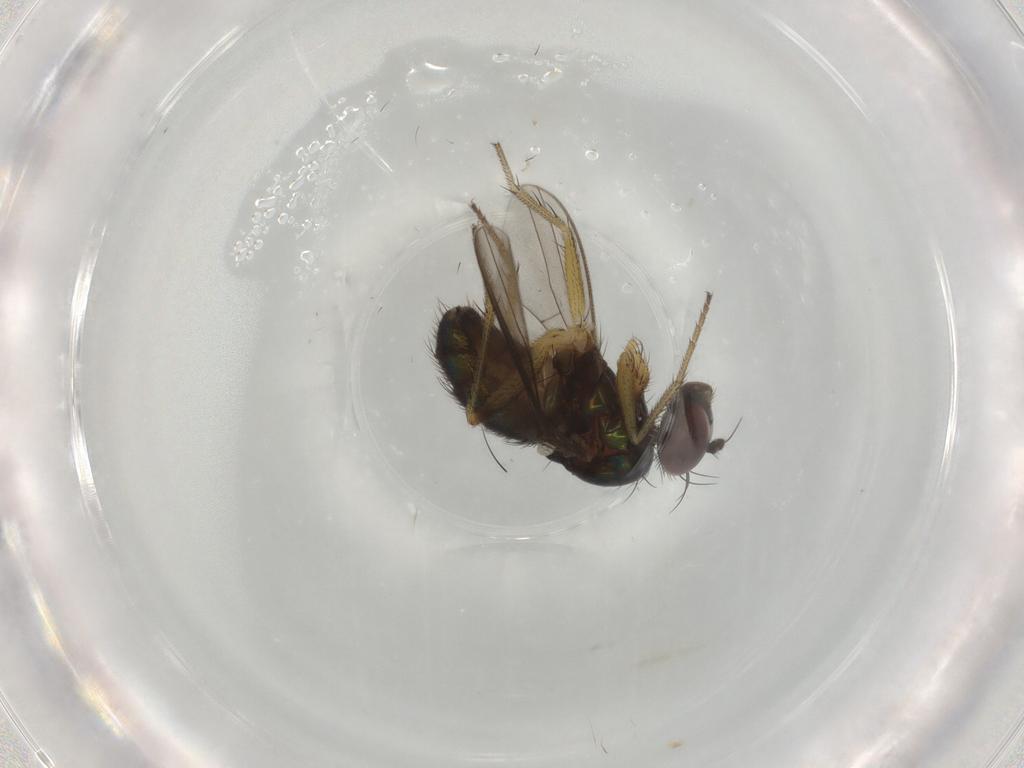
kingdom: Animalia
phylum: Arthropoda
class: Insecta
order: Diptera
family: Dolichopodidae
